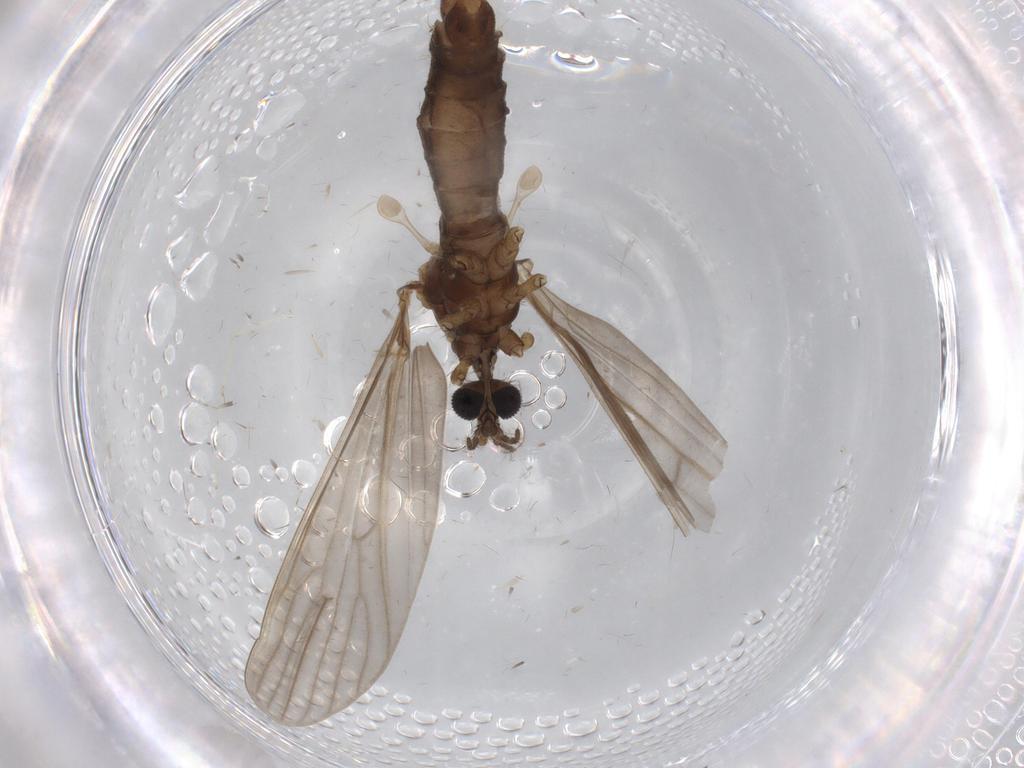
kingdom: Animalia
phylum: Arthropoda
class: Insecta
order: Diptera
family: Chironomidae
